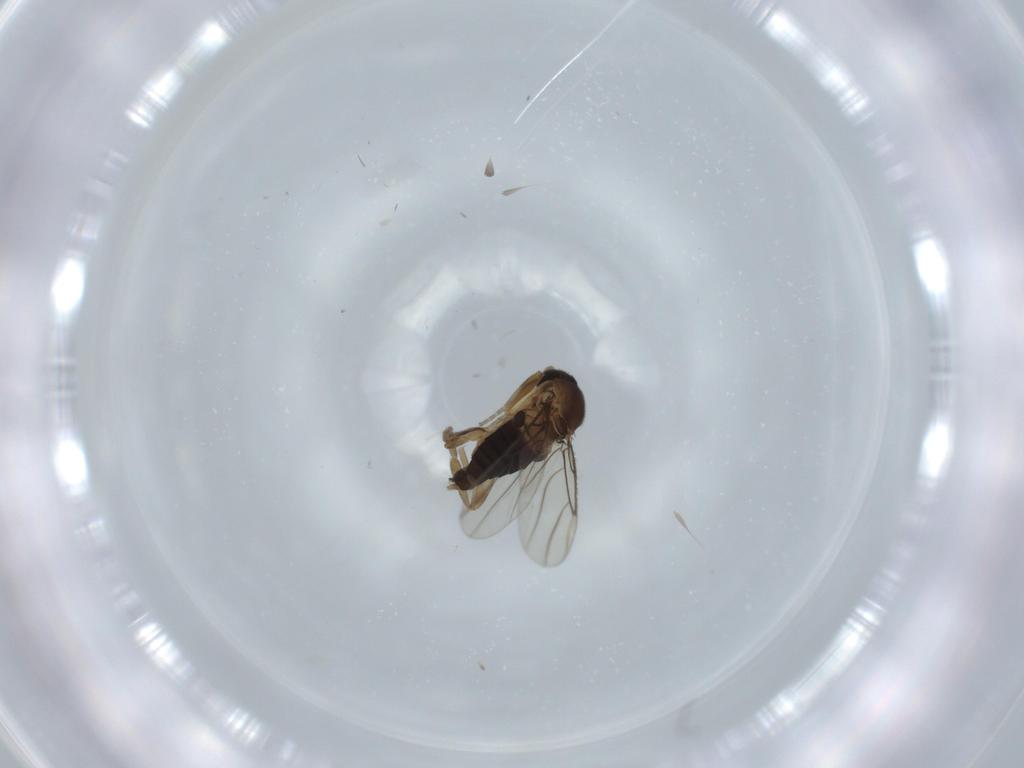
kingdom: Animalia
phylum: Arthropoda
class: Insecta
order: Diptera
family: Phoridae
